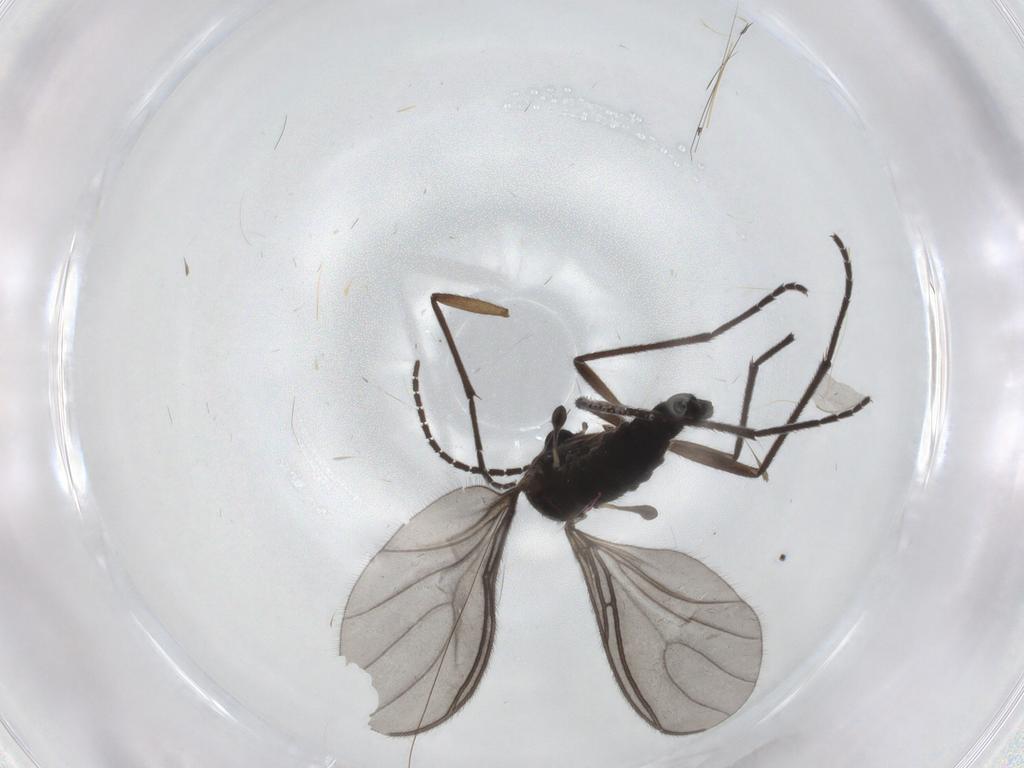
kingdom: Animalia
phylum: Arthropoda
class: Insecta
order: Diptera
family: Sciaridae
